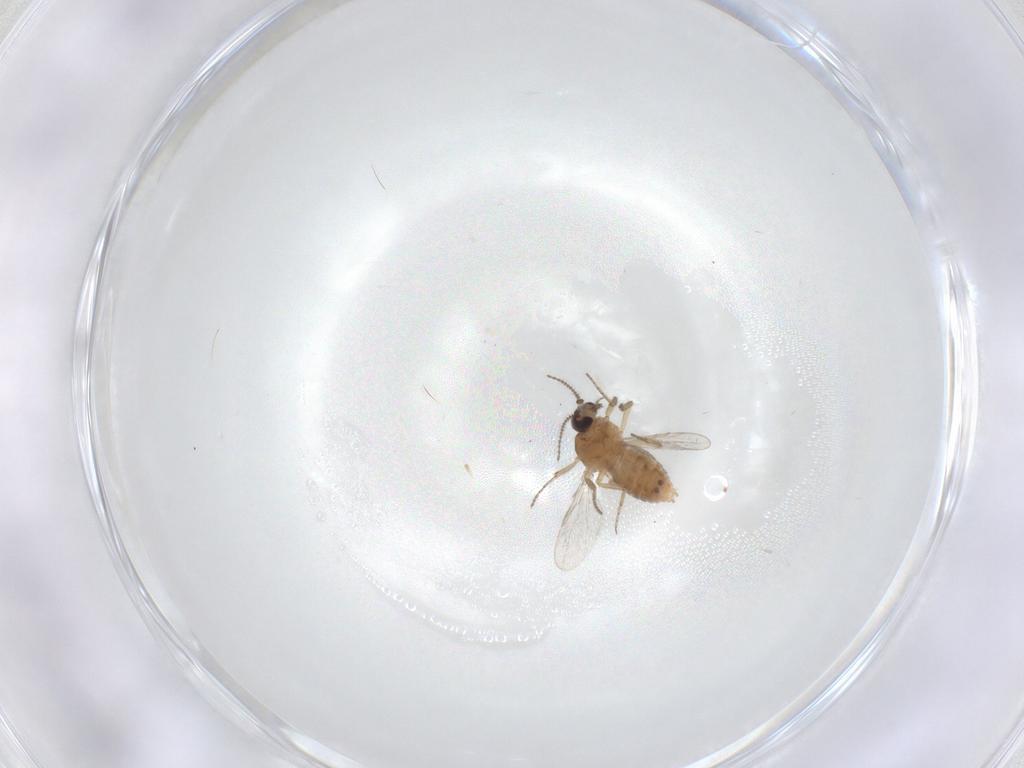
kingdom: Animalia
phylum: Arthropoda
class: Insecta
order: Diptera
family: Ceratopogonidae
